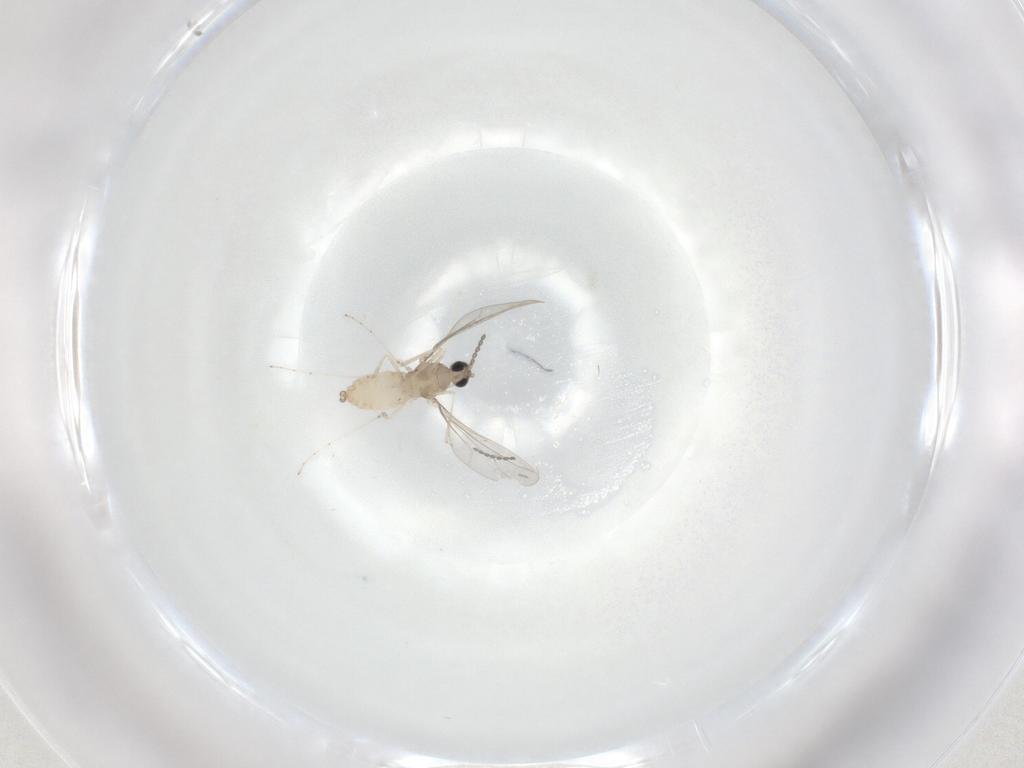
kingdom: Animalia
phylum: Arthropoda
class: Insecta
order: Diptera
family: Cecidomyiidae
